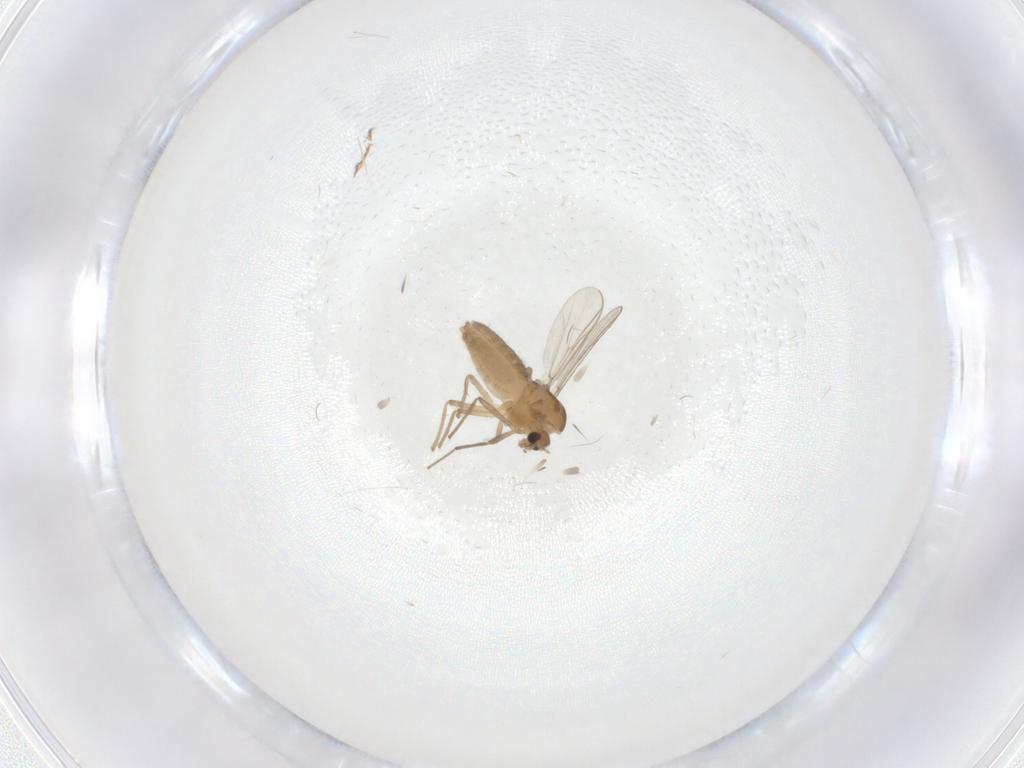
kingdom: Animalia
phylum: Arthropoda
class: Insecta
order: Diptera
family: Chironomidae
